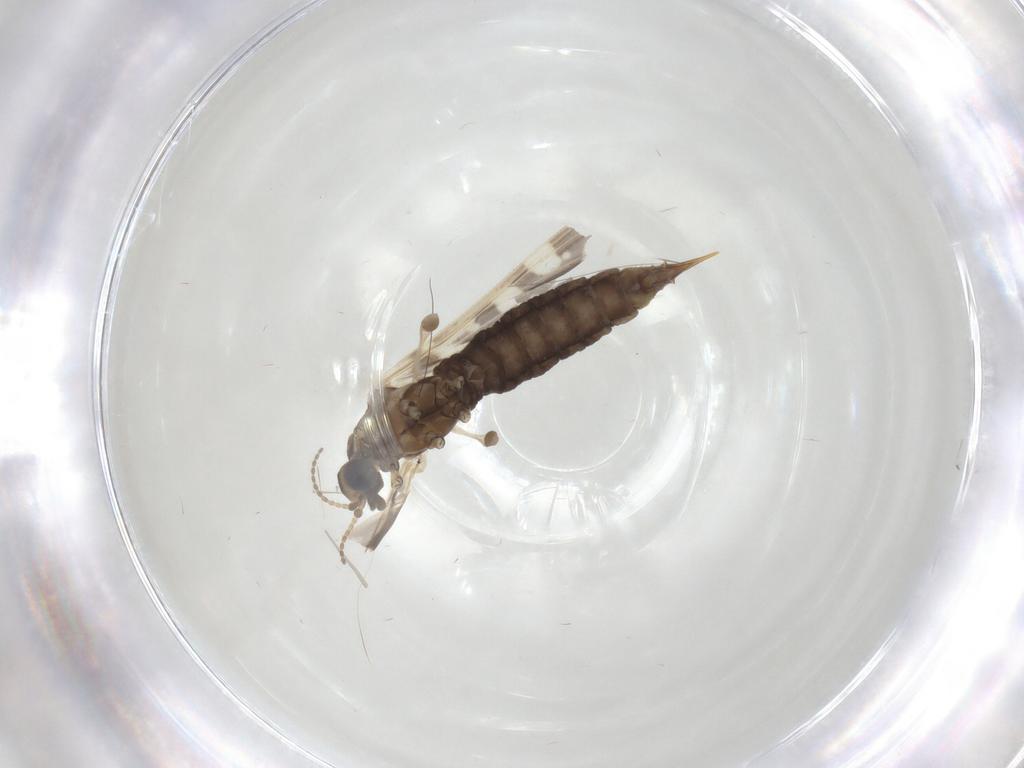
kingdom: Animalia
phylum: Arthropoda
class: Insecta
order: Diptera
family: Limoniidae
